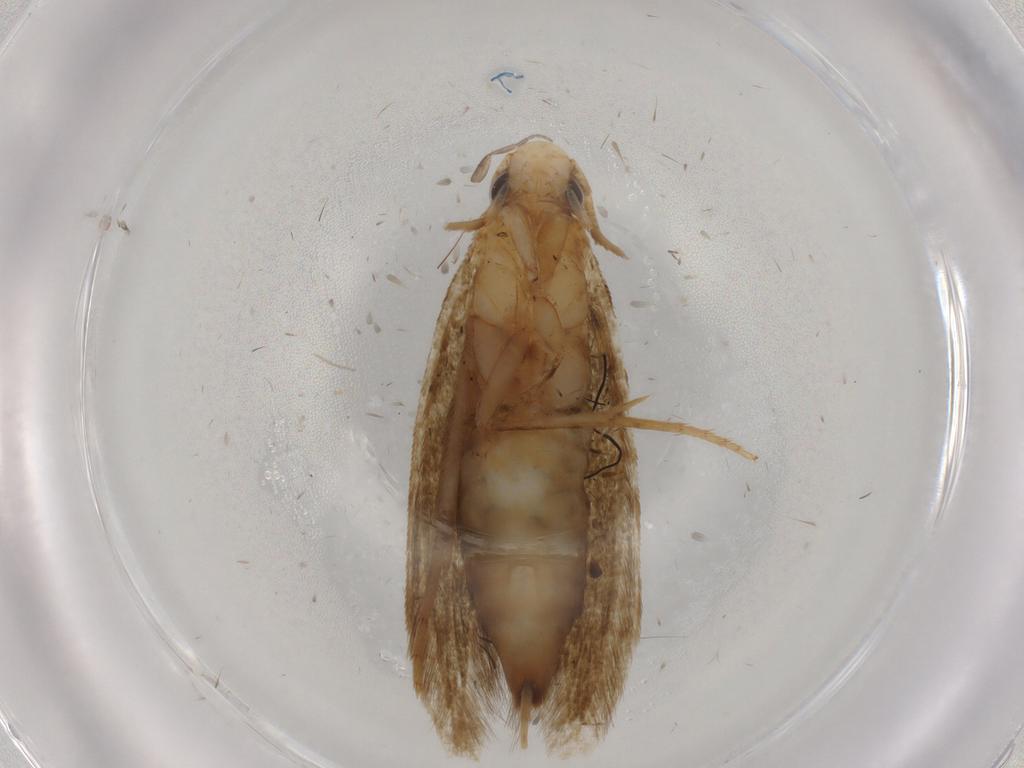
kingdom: Animalia
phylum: Arthropoda
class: Insecta
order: Lepidoptera
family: Tineidae
